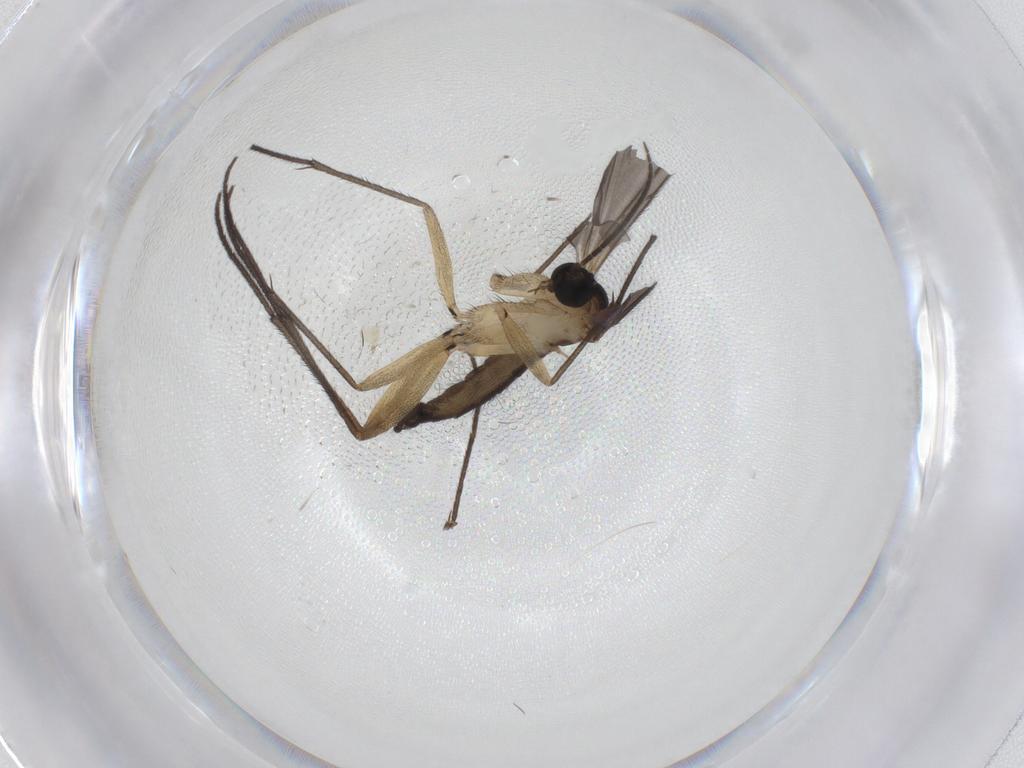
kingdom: Animalia
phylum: Arthropoda
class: Insecta
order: Diptera
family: Sciaridae
